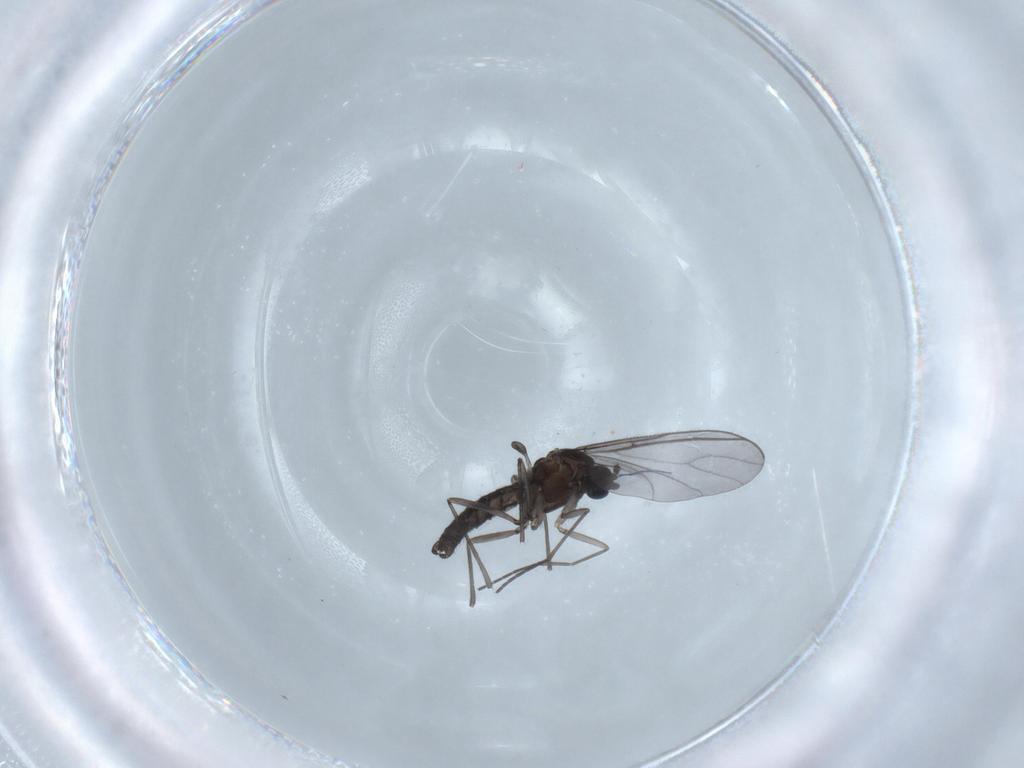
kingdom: Animalia
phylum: Arthropoda
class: Insecta
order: Diptera
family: Sciaridae
